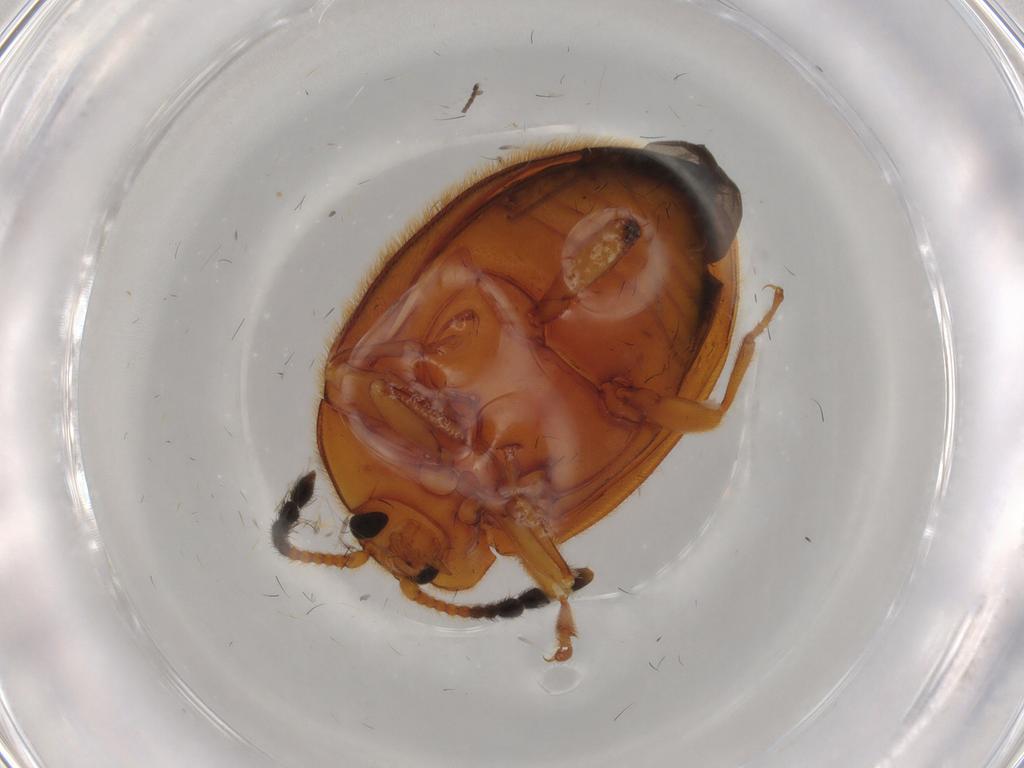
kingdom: Animalia
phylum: Arthropoda
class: Insecta
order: Coleoptera
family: Endomychidae
